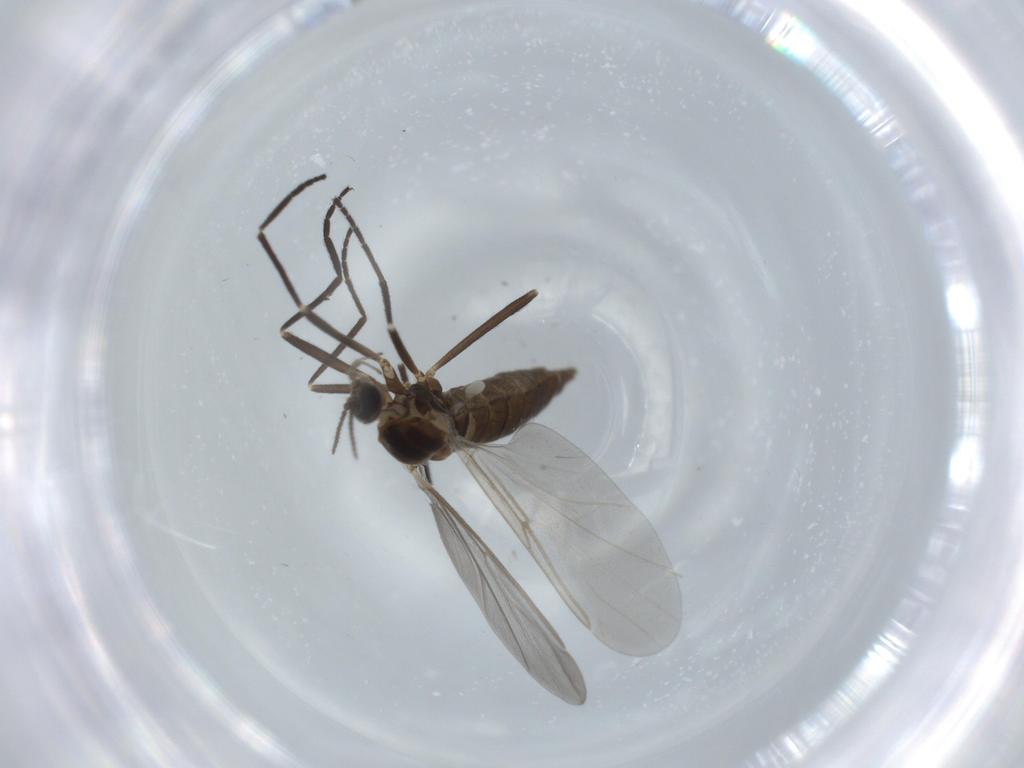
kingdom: Animalia
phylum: Arthropoda
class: Insecta
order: Diptera
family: Cecidomyiidae
